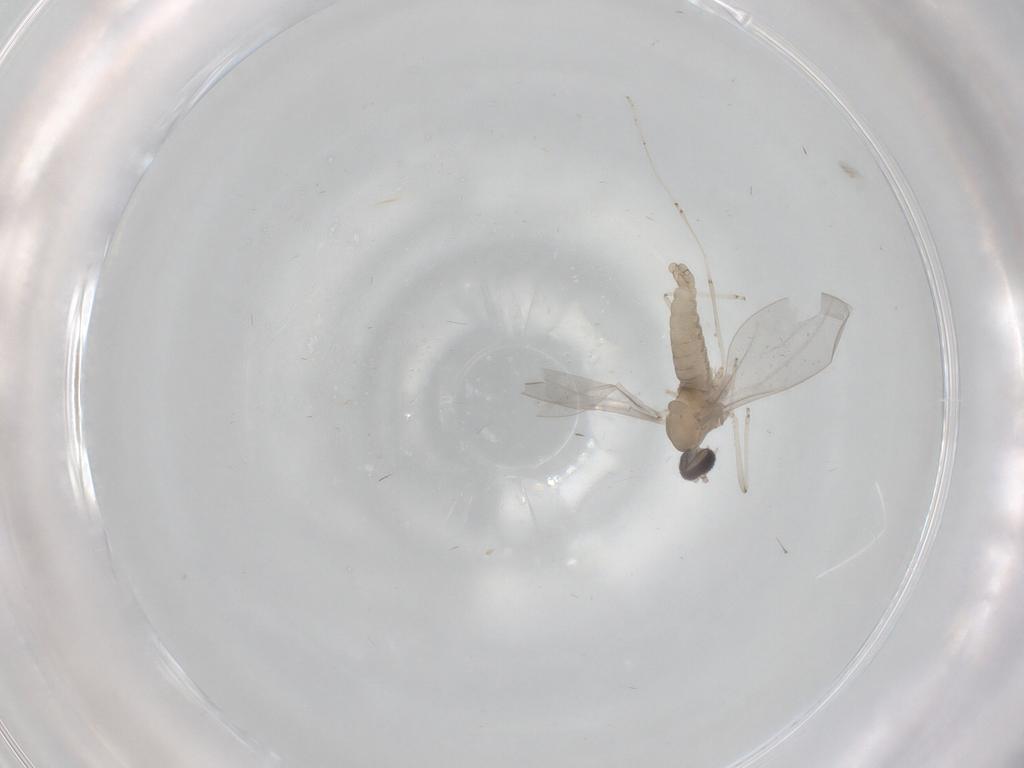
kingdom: Animalia
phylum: Arthropoda
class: Insecta
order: Diptera
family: Cecidomyiidae
